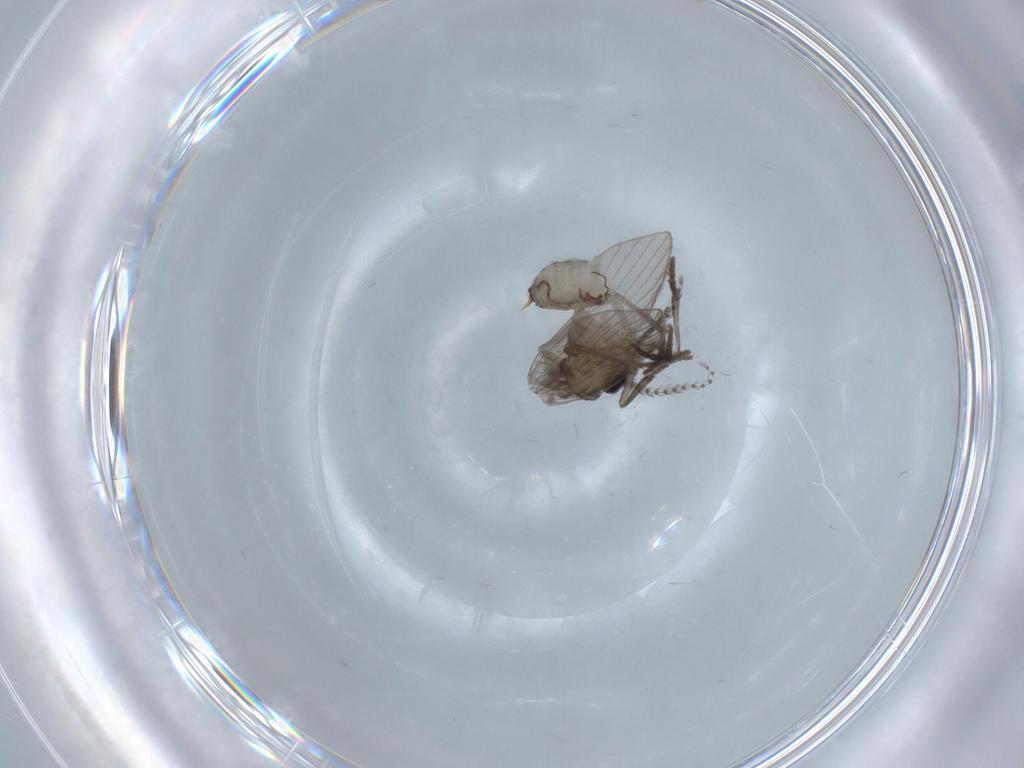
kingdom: Animalia
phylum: Arthropoda
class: Insecta
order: Diptera
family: Psychodidae
